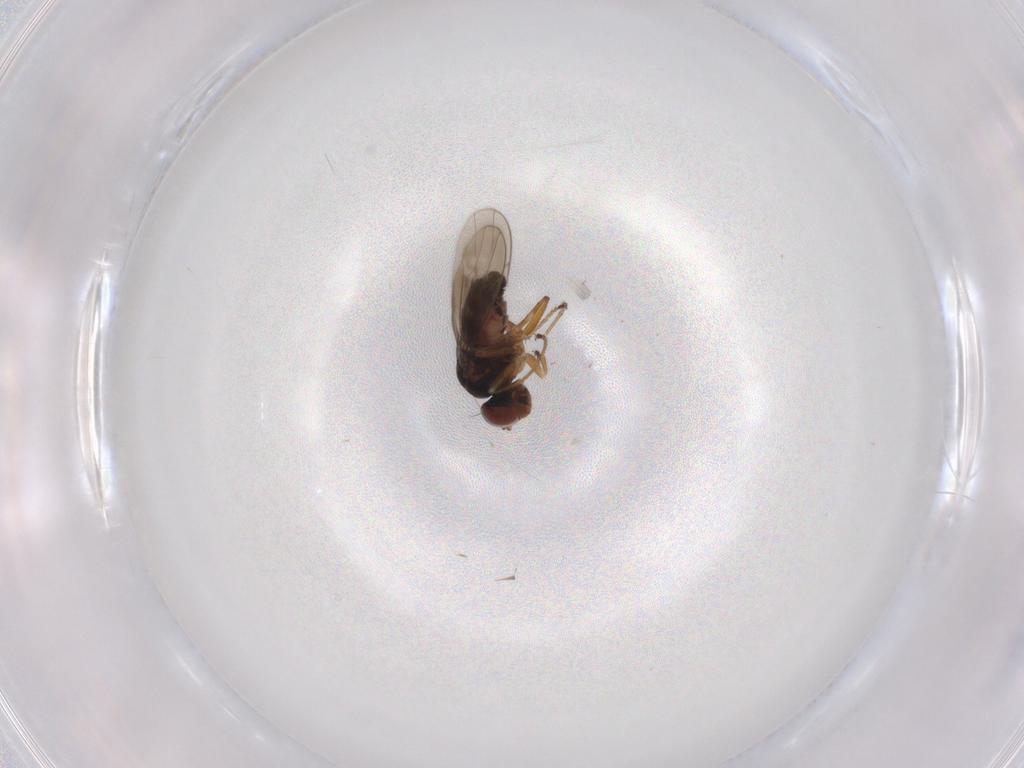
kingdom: Animalia
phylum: Arthropoda
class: Insecta
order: Diptera
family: Ephydridae
